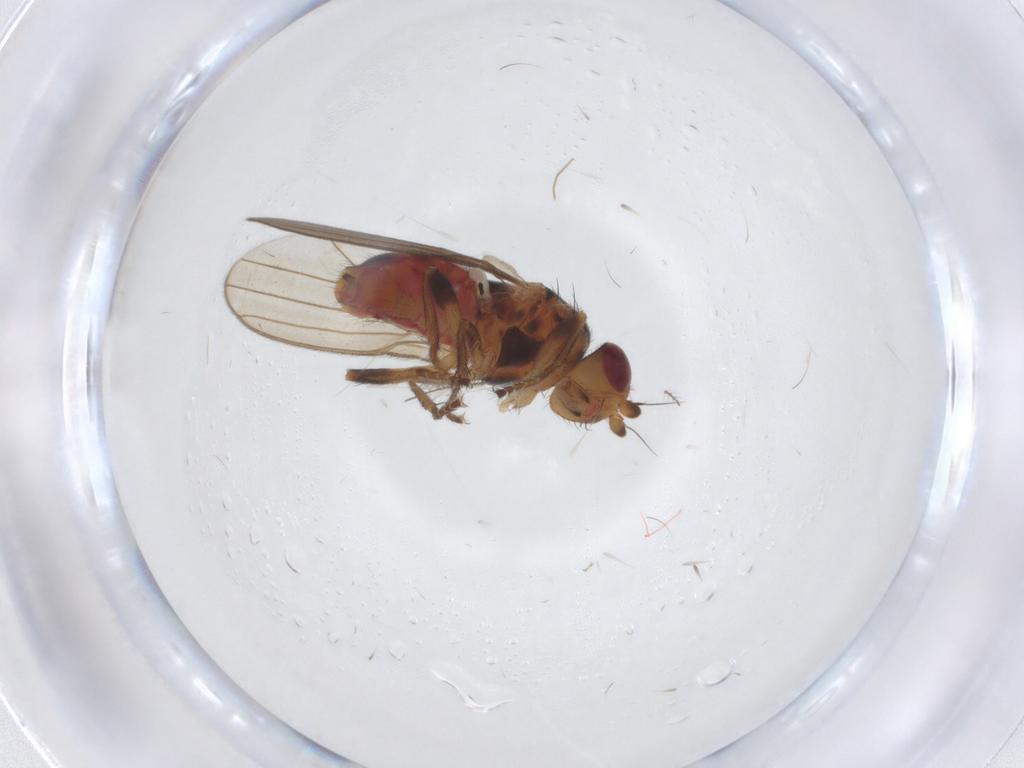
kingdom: Animalia
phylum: Arthropoda
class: Insecta
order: Diptera
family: Sphaeroceridae
